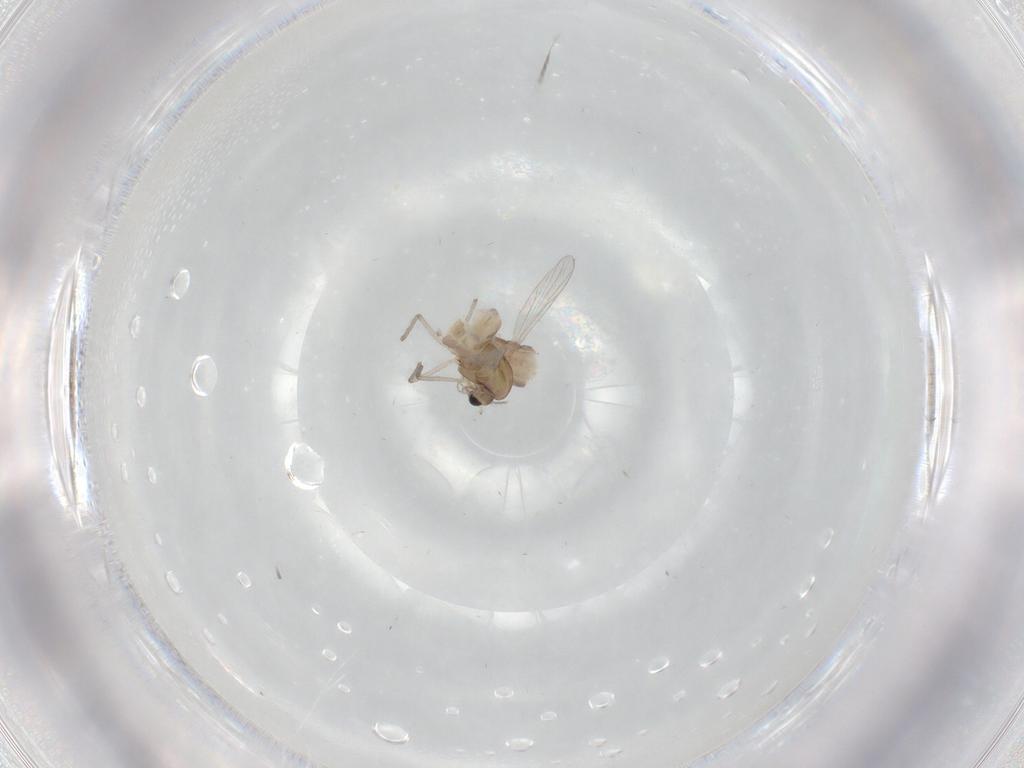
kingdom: Animalia
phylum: Arthropoda
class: Insecta
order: Diptera
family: Chironomidae
